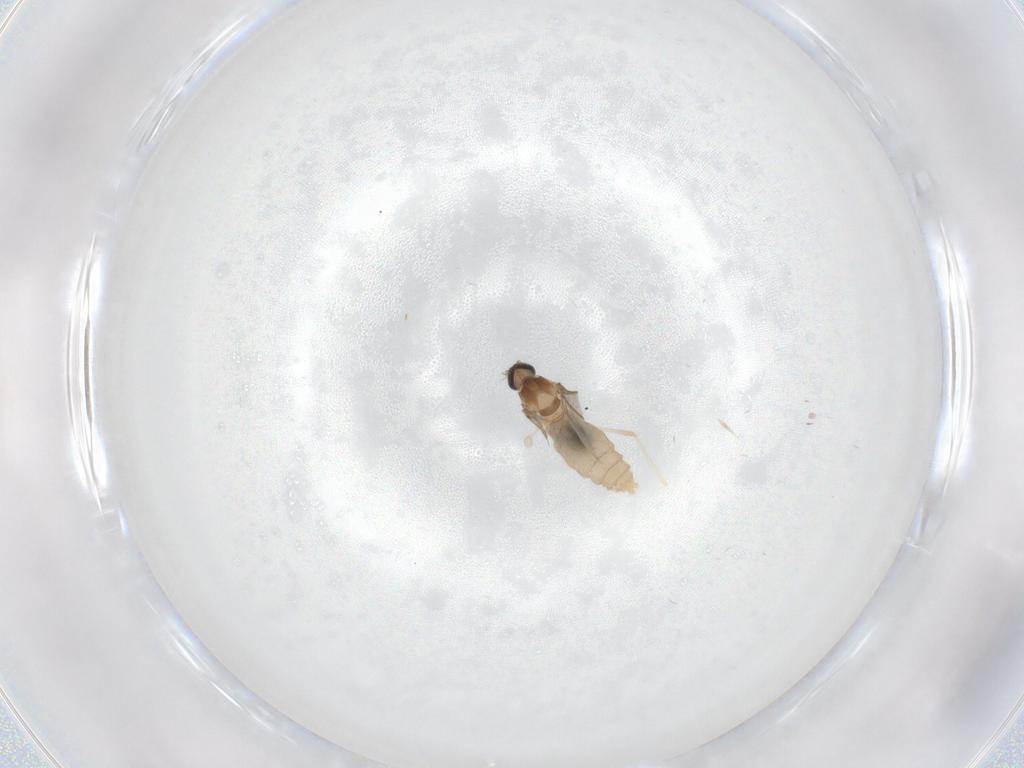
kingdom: Animalia
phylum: Arthropoda
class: Insecta
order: Diptera
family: Cecidomyiidae
